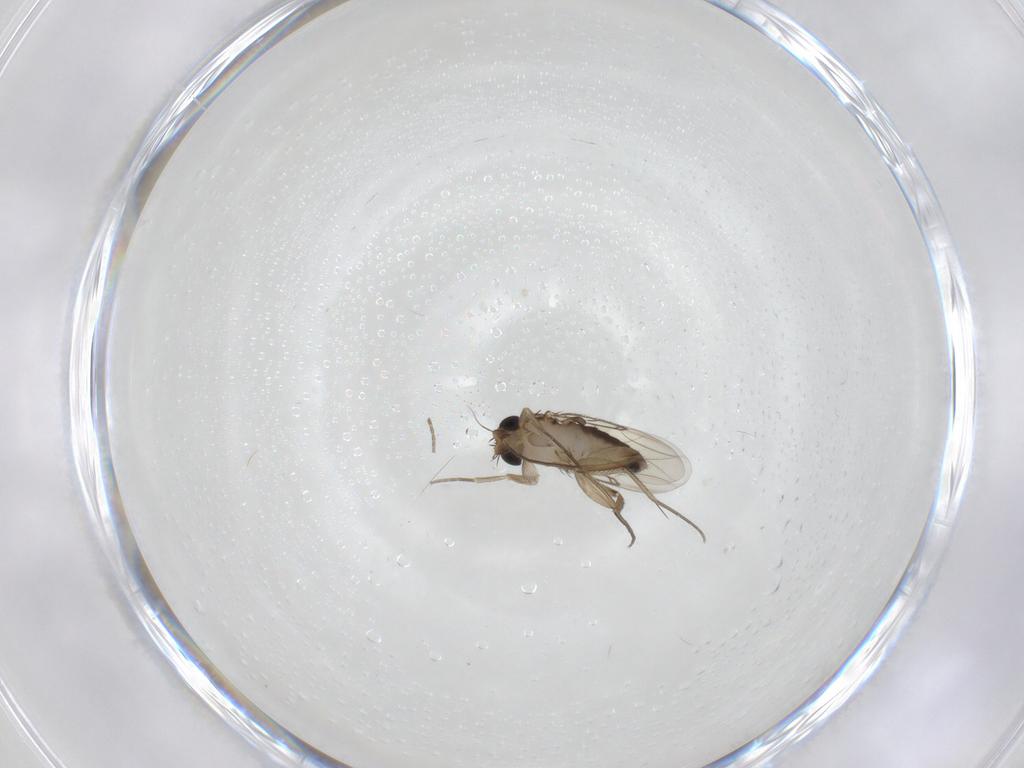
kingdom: Animalia
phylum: Arthropoda
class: Insecta
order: Diptera
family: Phoridae
